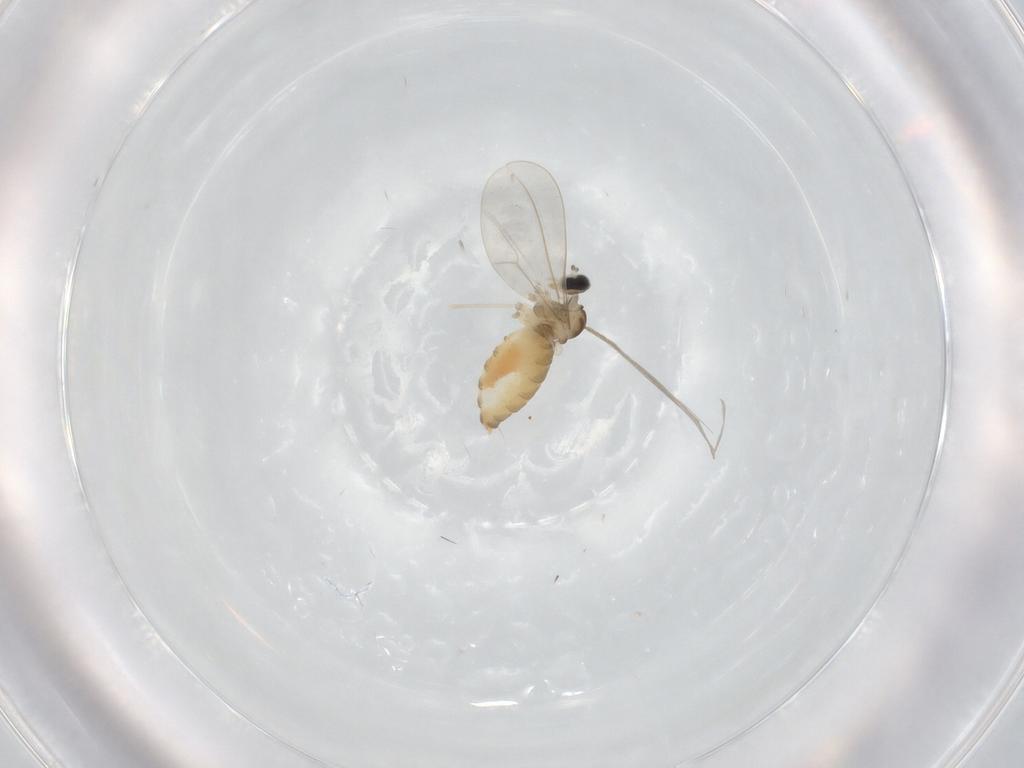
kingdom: Animalia
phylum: Arthropoda
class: Insecta
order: Diptera
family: Cecidomyiidae
